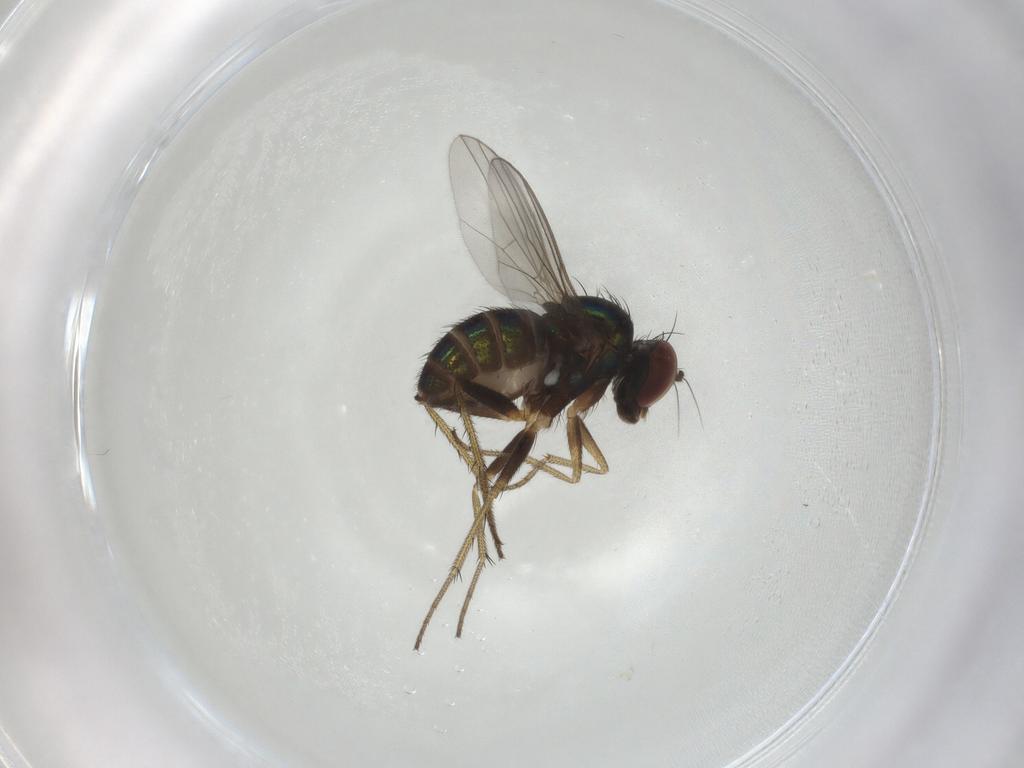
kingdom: Animalia
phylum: Arthropoda
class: Insecta
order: Diptera
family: Dolichopodidae
